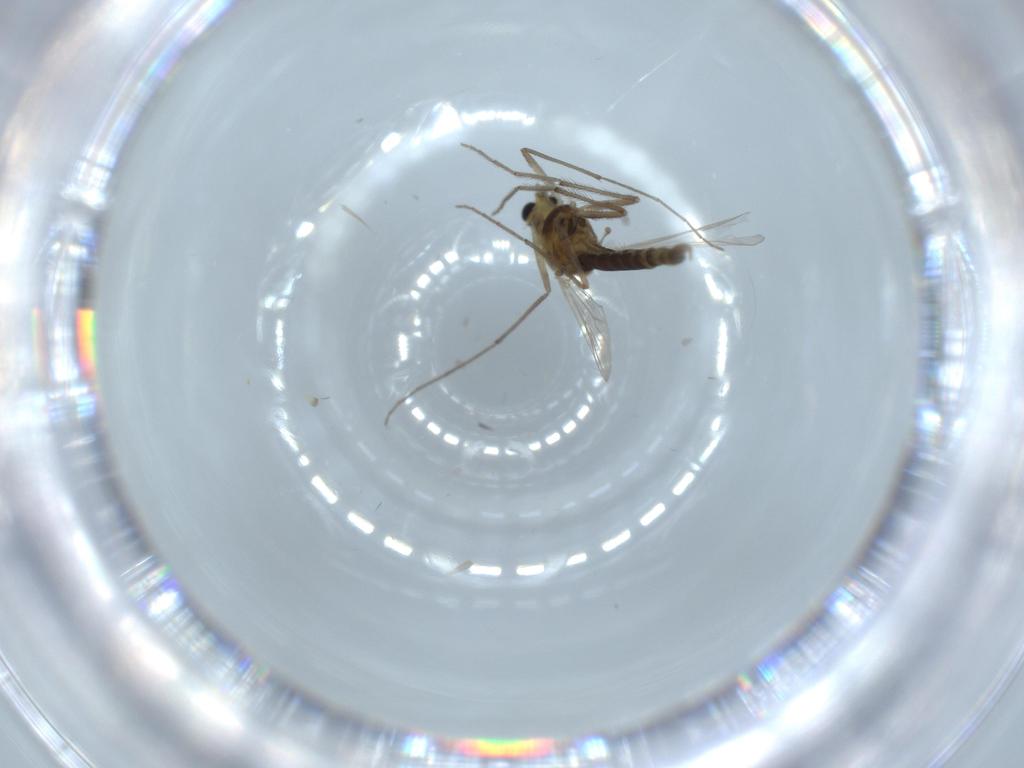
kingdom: Animalia
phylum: Arthropoda
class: Insecta
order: Diptera
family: Chironomidae
